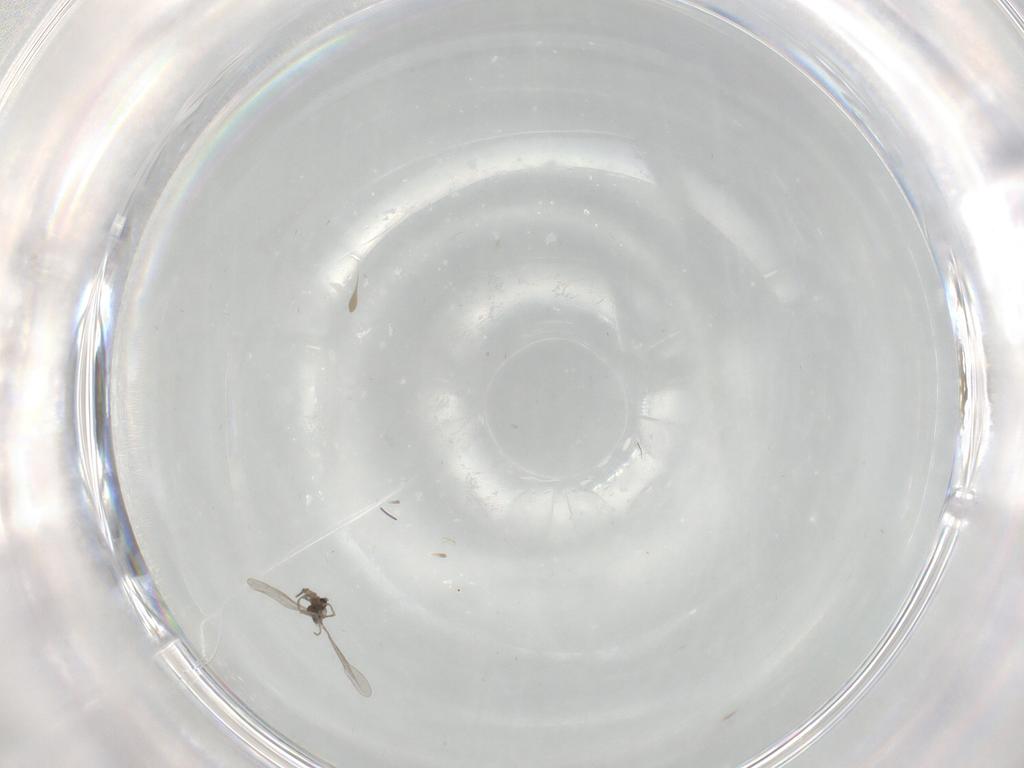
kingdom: Animalia
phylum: Arthropoda
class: Insecta
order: Diptera
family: Cecidomyiidae
